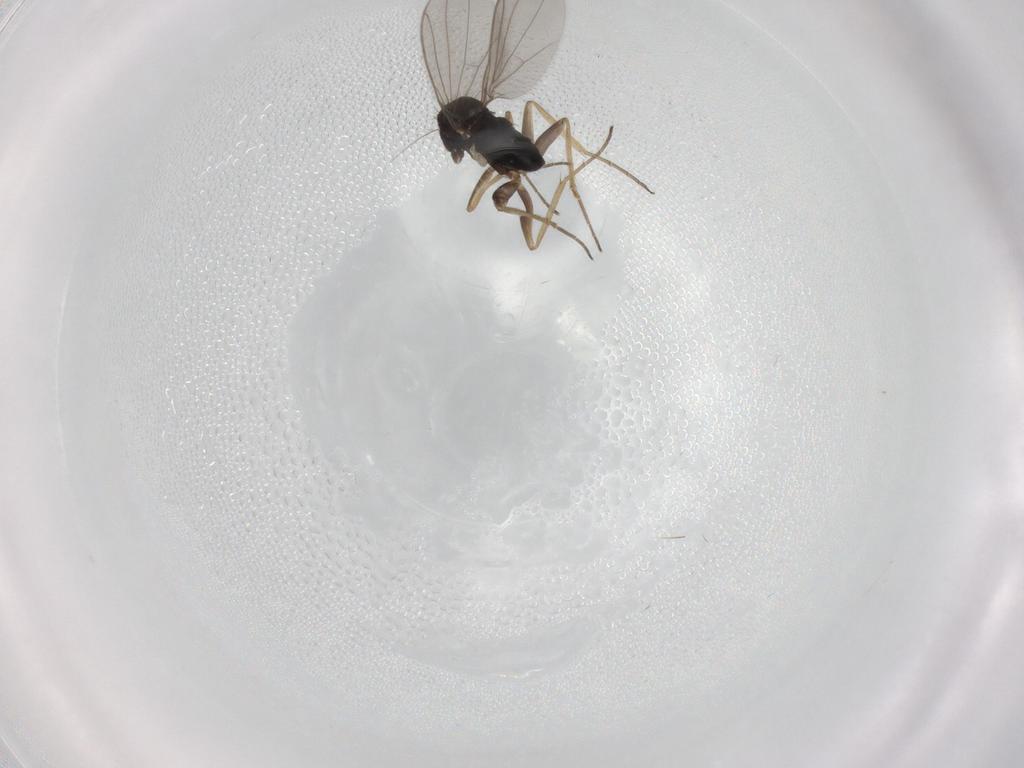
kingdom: Animalia
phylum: Arthropoda
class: Insecta
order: Diptera
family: Cecidomyiidae
